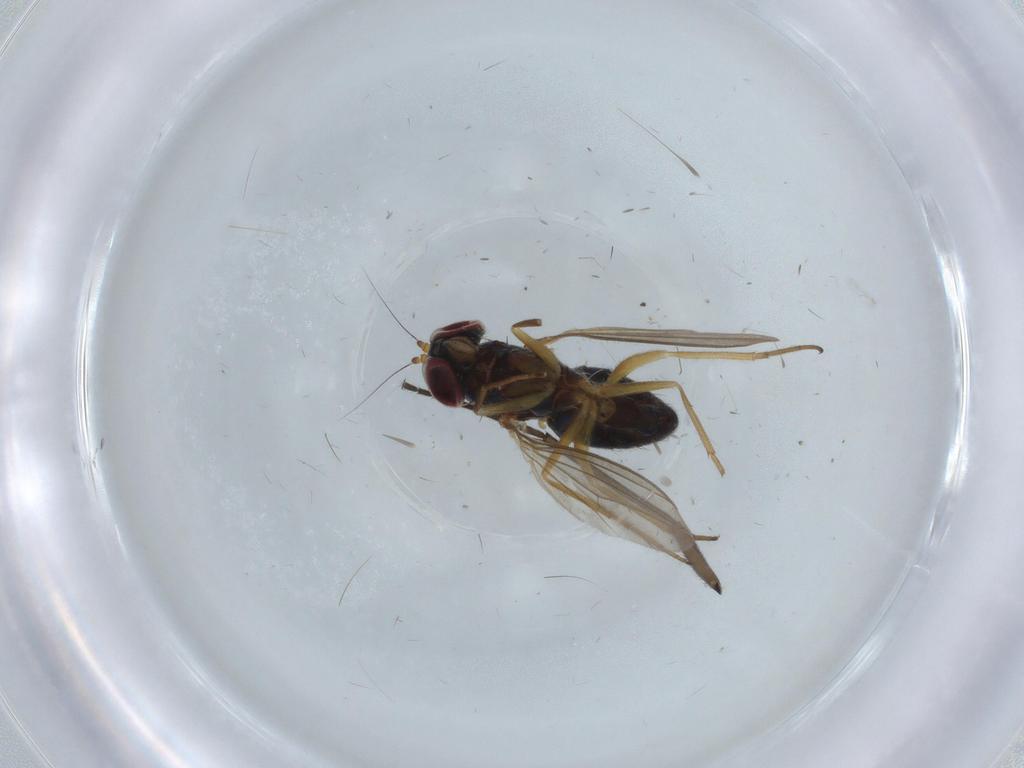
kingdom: Animalia
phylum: Arthropoda
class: Insecta
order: Diptera
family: Dolichopodidae
